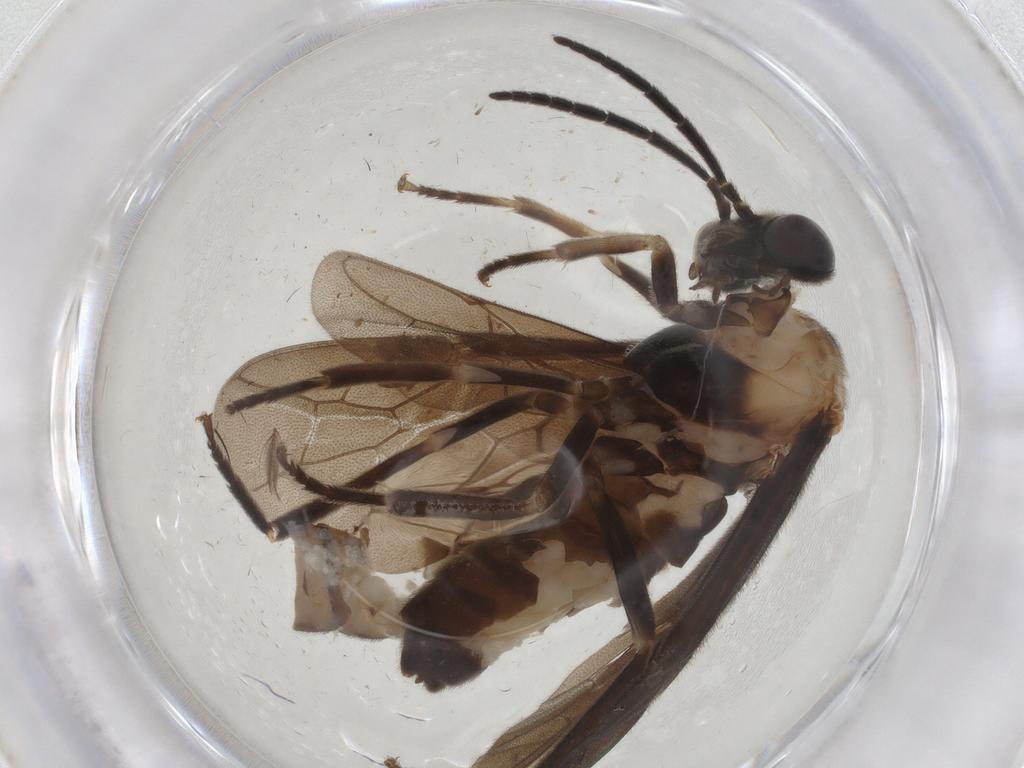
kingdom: Animalia
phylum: Arthropoda
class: Insecta
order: Hymenoptera
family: Tenthredinidae
